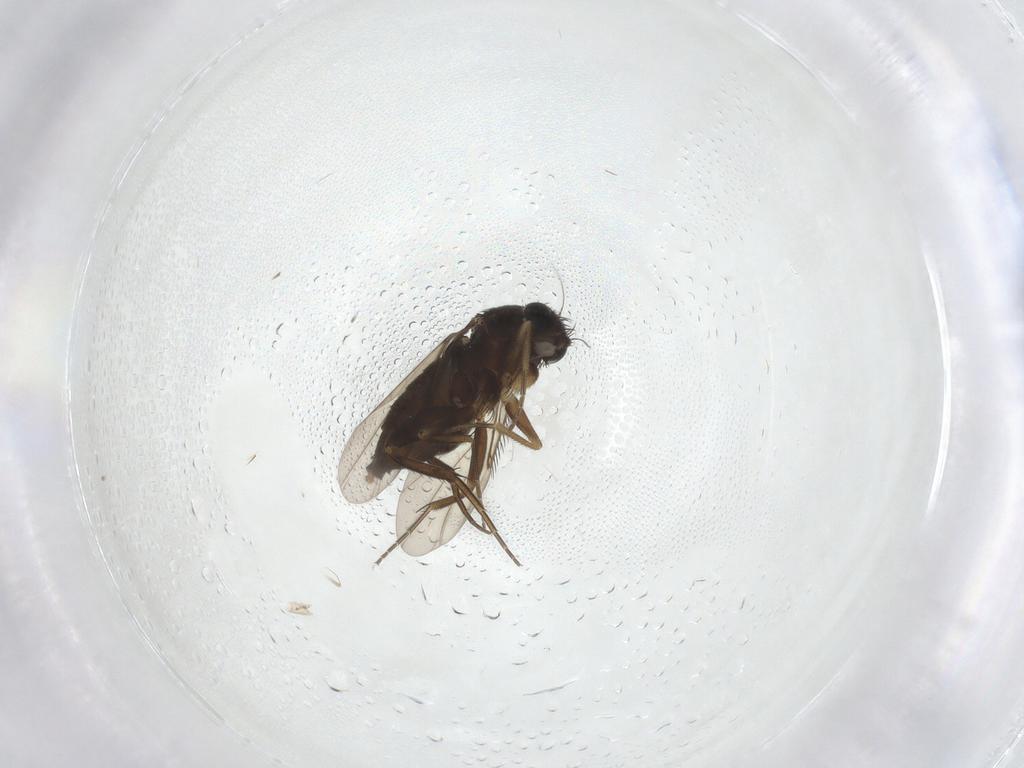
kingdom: Animalia
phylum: Arthropoda
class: Insecta
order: Diptera
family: Phoridae
